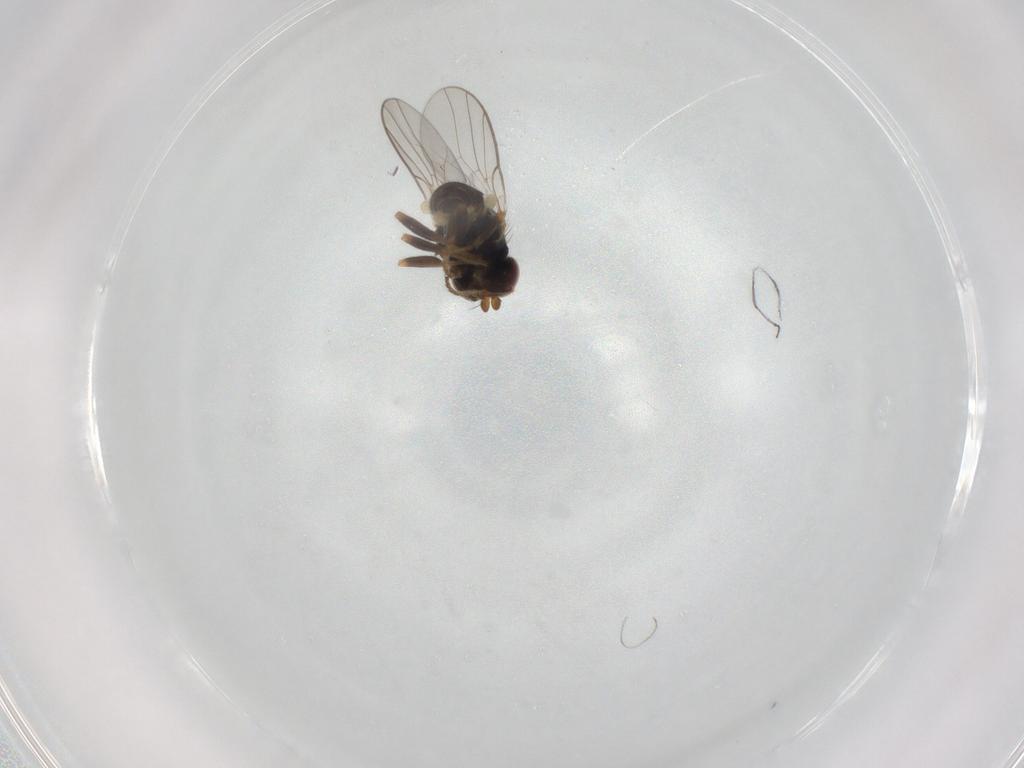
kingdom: Animalia
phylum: Arthropoda
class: Insecta
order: Diptera
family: Chloropidae
